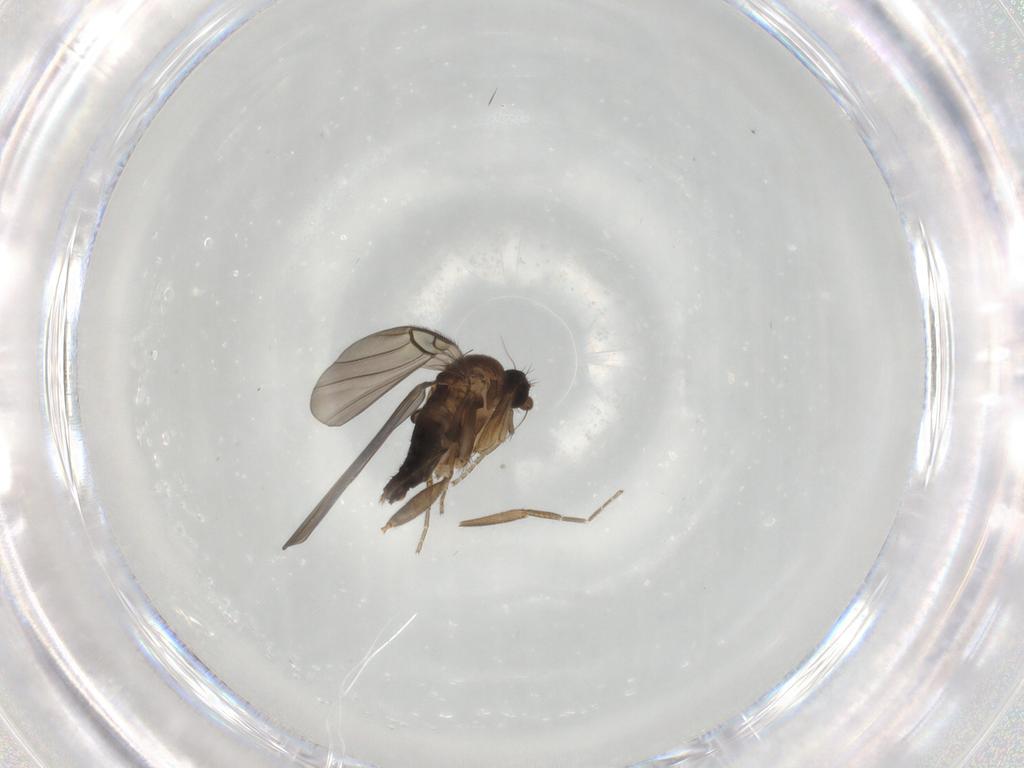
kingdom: Animalia
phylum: Arthropoda
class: Insecta
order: Diptera
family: Phoridae
